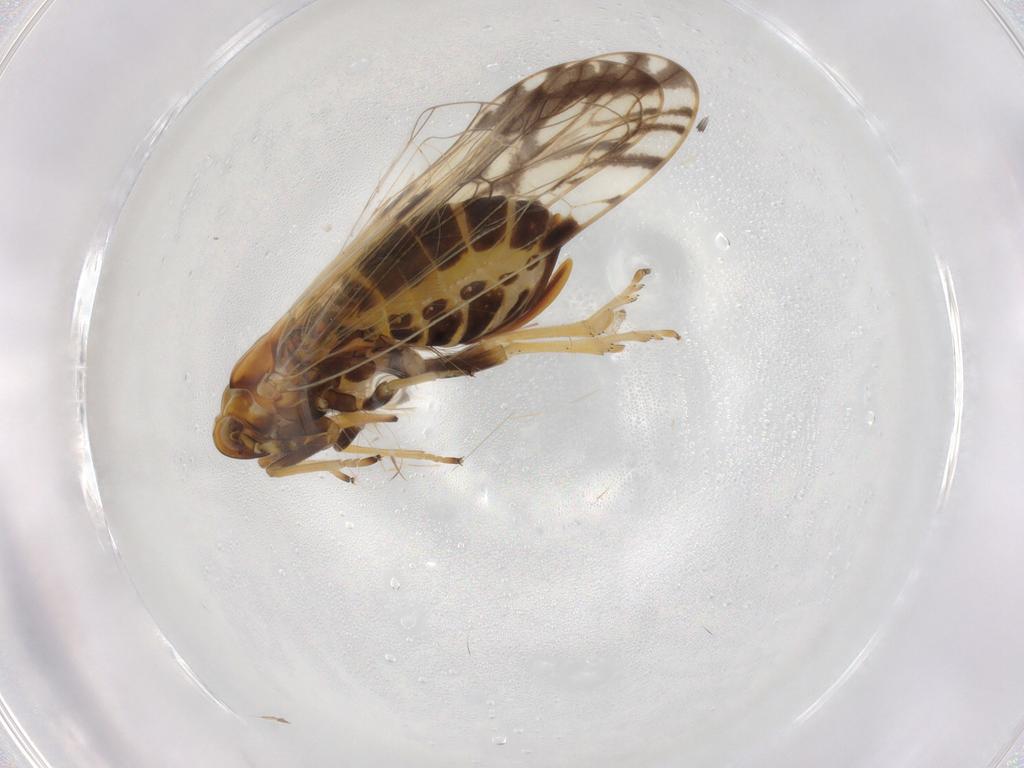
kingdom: Animalia
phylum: Arthropoda
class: Insecta
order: Hemiptera
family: Delphacidae
